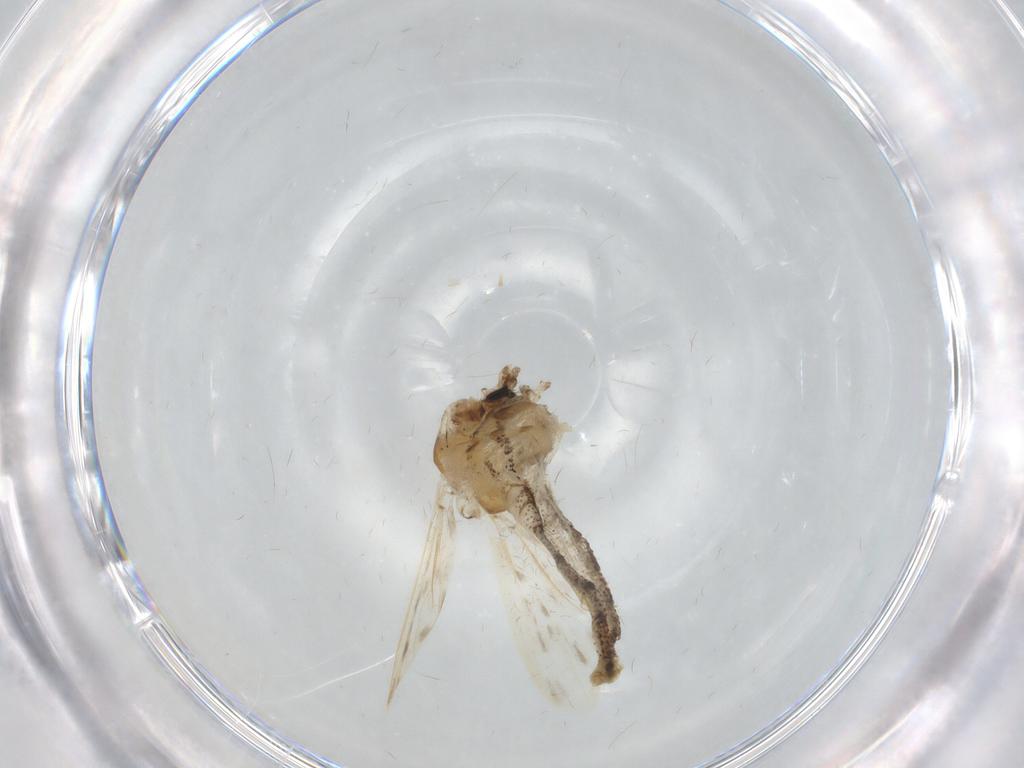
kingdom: Animalia
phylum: Arthropoda
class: Insecta
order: Diptera
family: Chaoboridae
